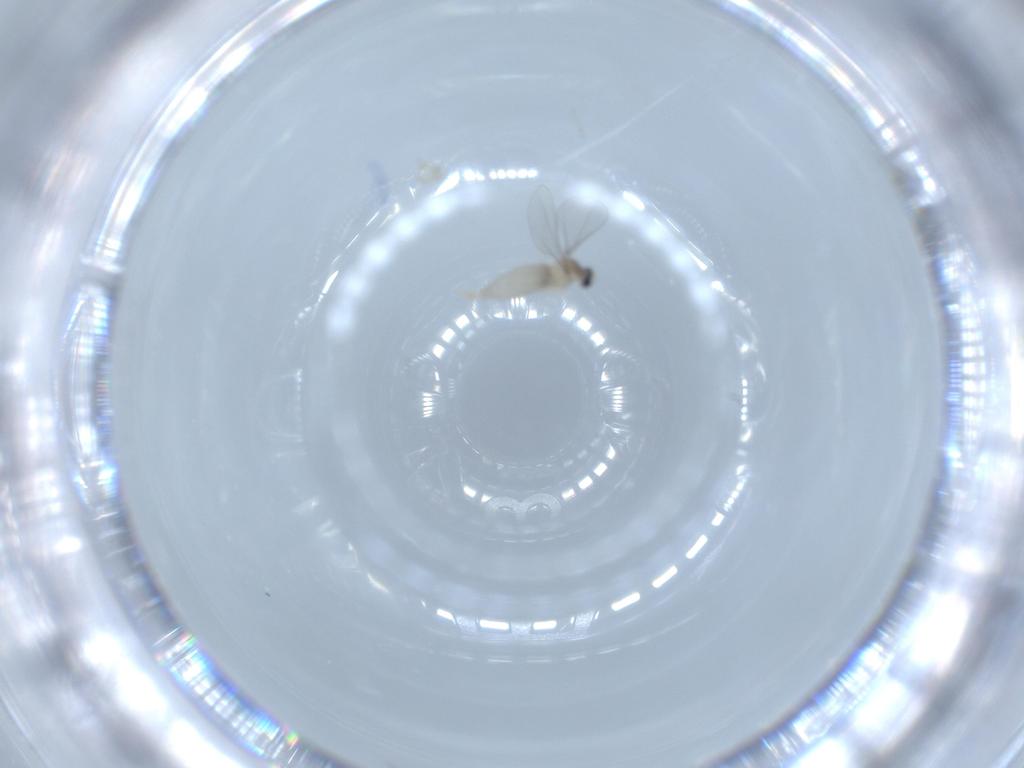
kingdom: Animalia
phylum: Arthropoda
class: Insecta
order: Diptera
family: Cecidomyiidae
